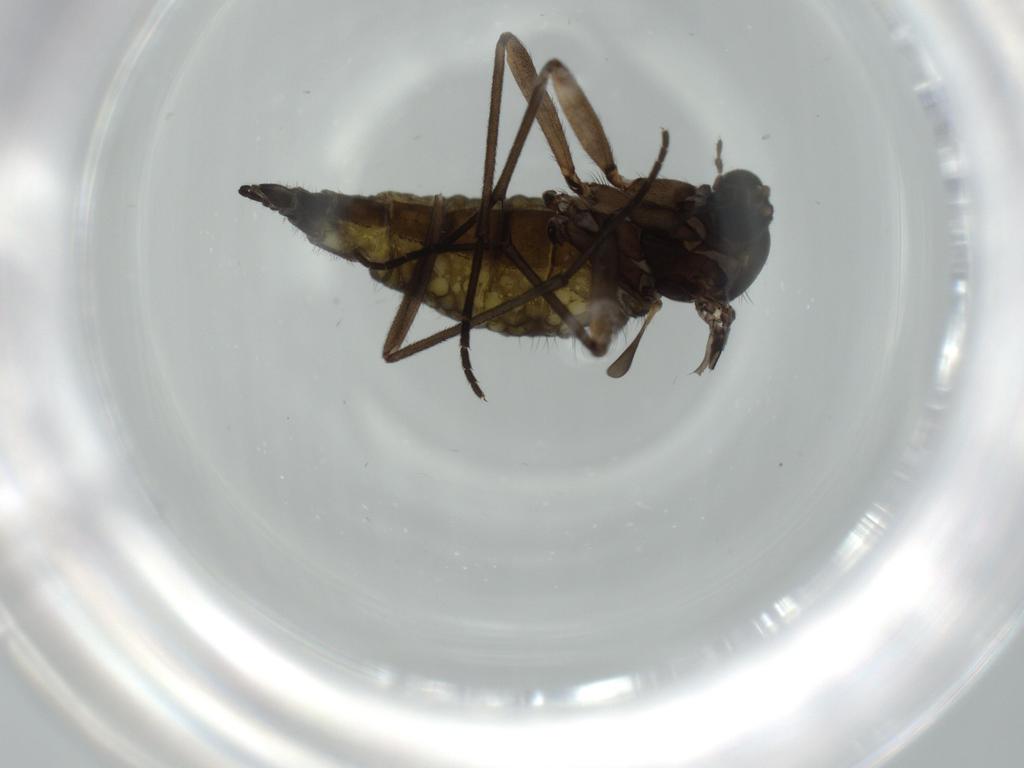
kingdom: Animalia
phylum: Arthropoda
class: Insecta
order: Diptera
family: Sciaridae
